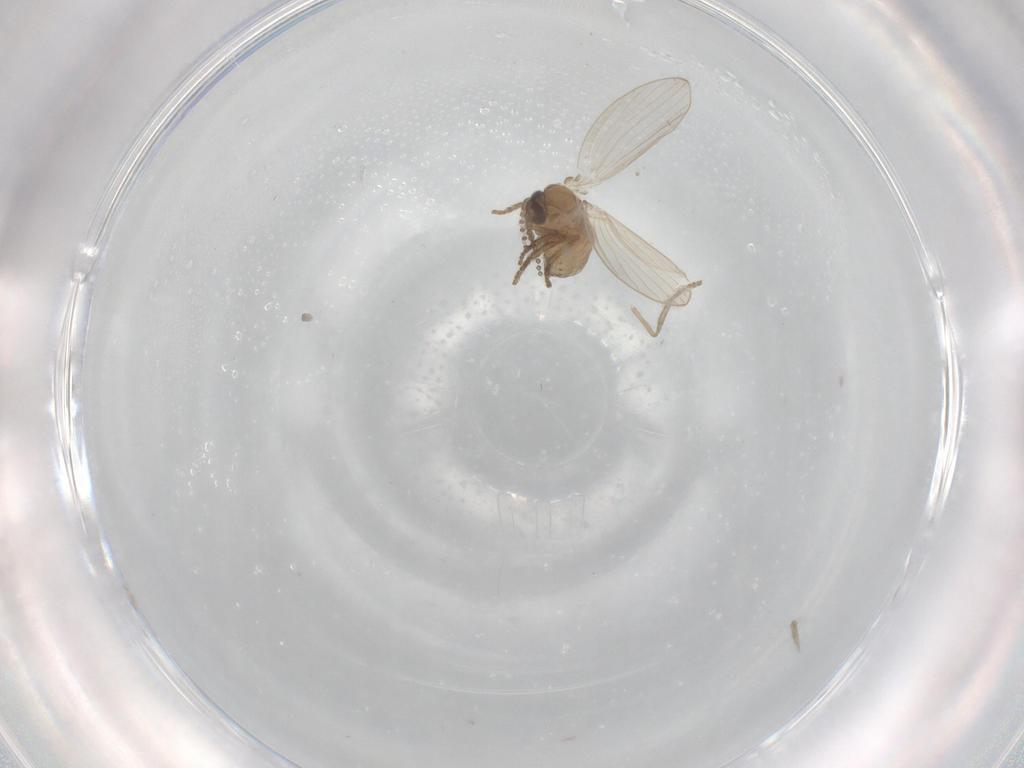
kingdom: Animalia
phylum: Arthropoda
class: Insecta
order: Diptera
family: Psychodidae
